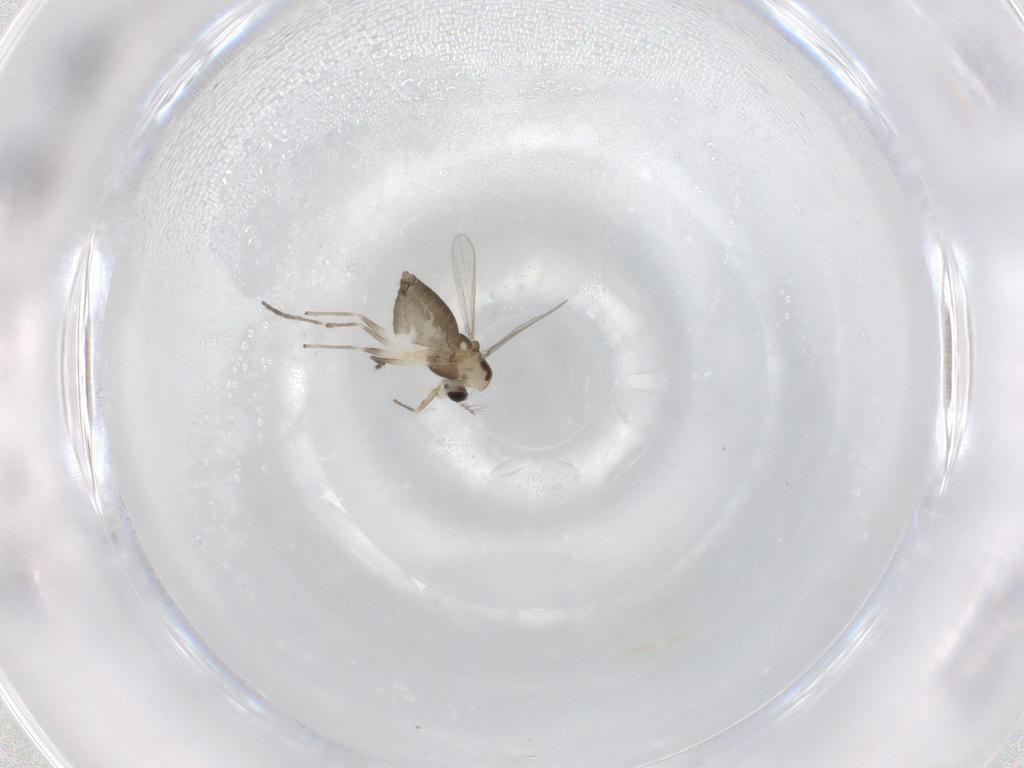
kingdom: Animalia
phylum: Arthropoda
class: Insecta
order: Diptera
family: Chironomidae
